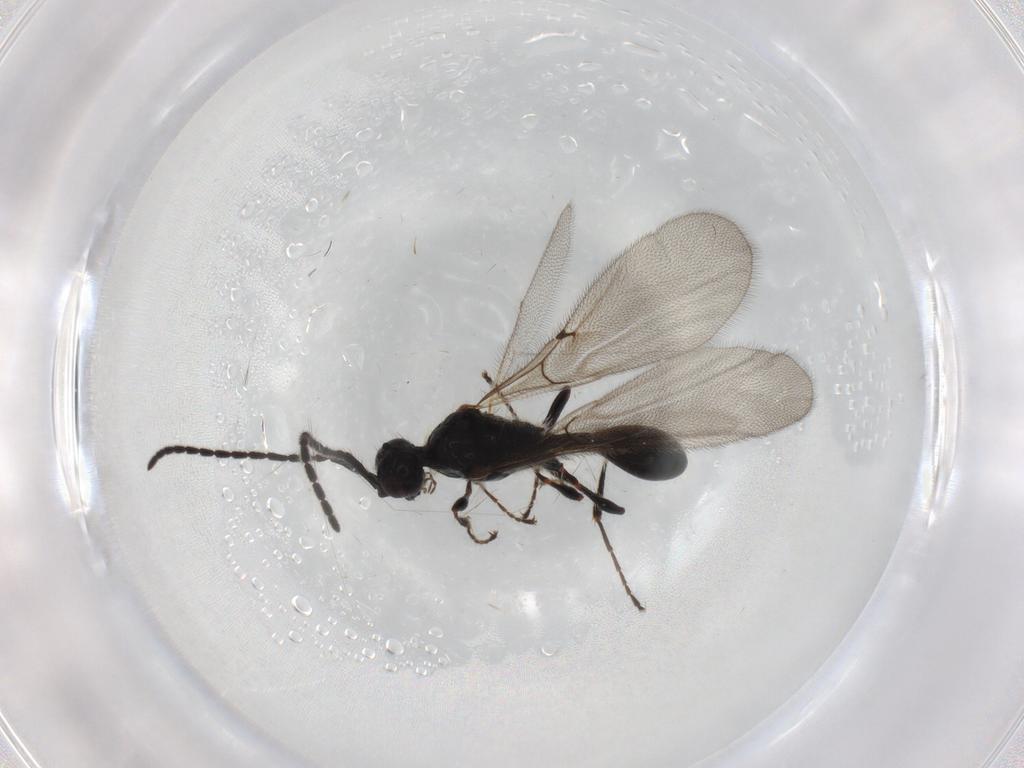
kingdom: Animalia
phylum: Arthropoda
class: Insecta
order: Hymenoptera
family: Diapriidae
